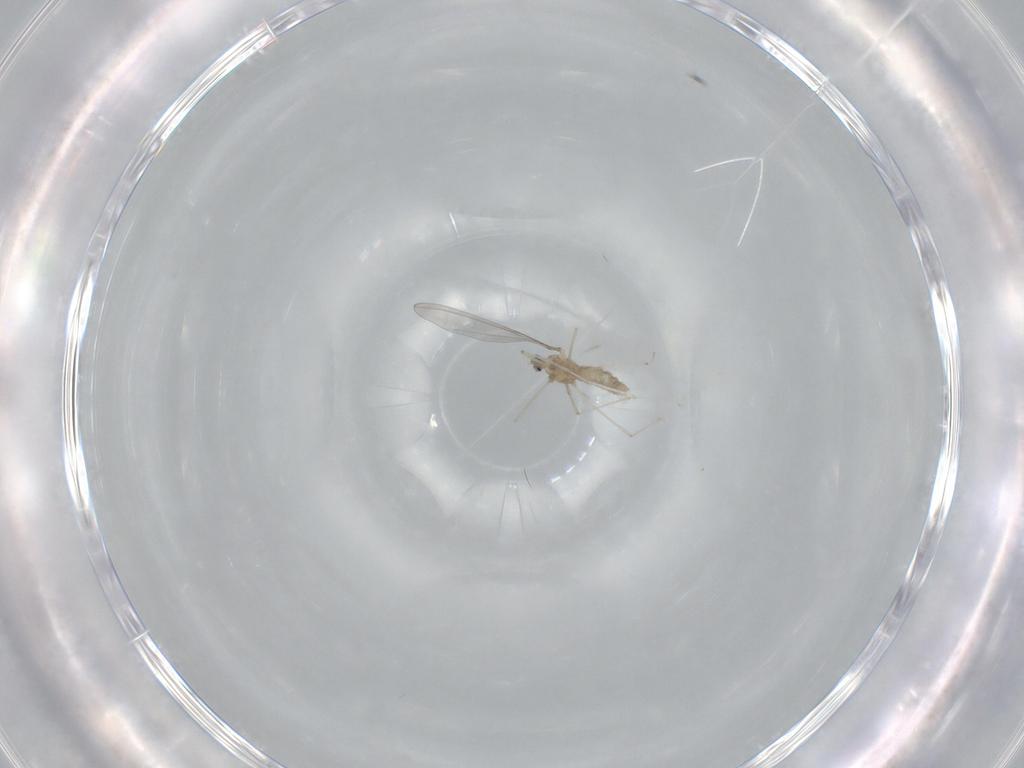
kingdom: Animalia
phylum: Arthropoda
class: Insecta
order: Diptera
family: Cecidomyiidae
